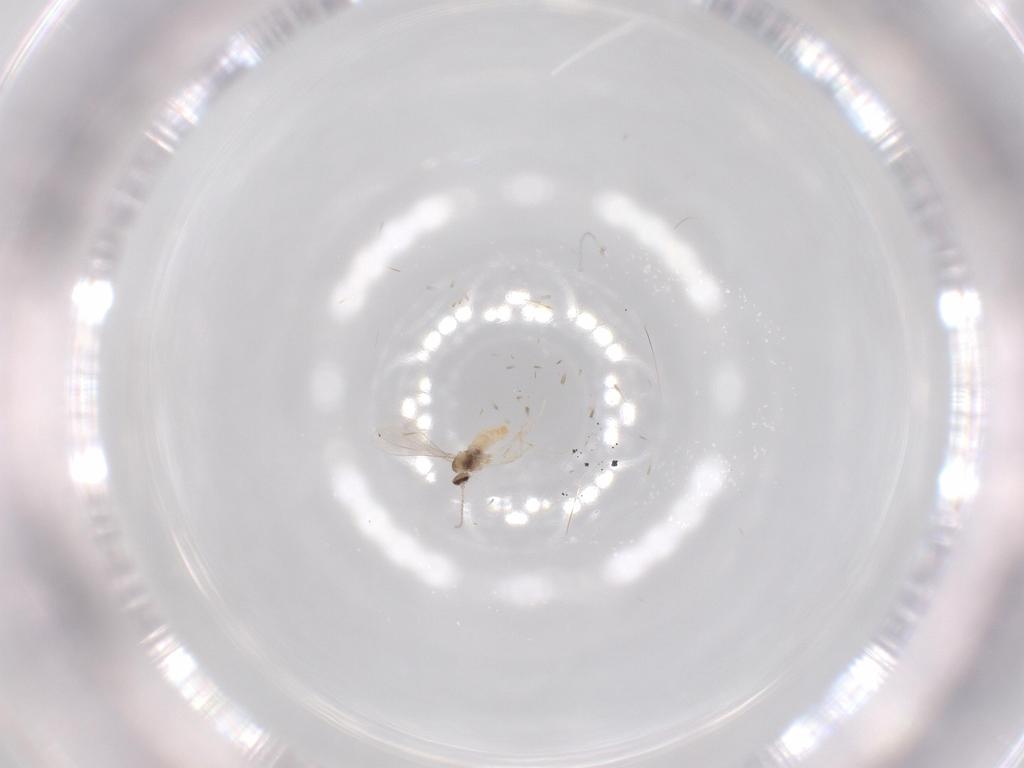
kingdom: Animalia
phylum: Arthropoda
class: Insecta
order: Diptera
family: Cecidomyiidae
